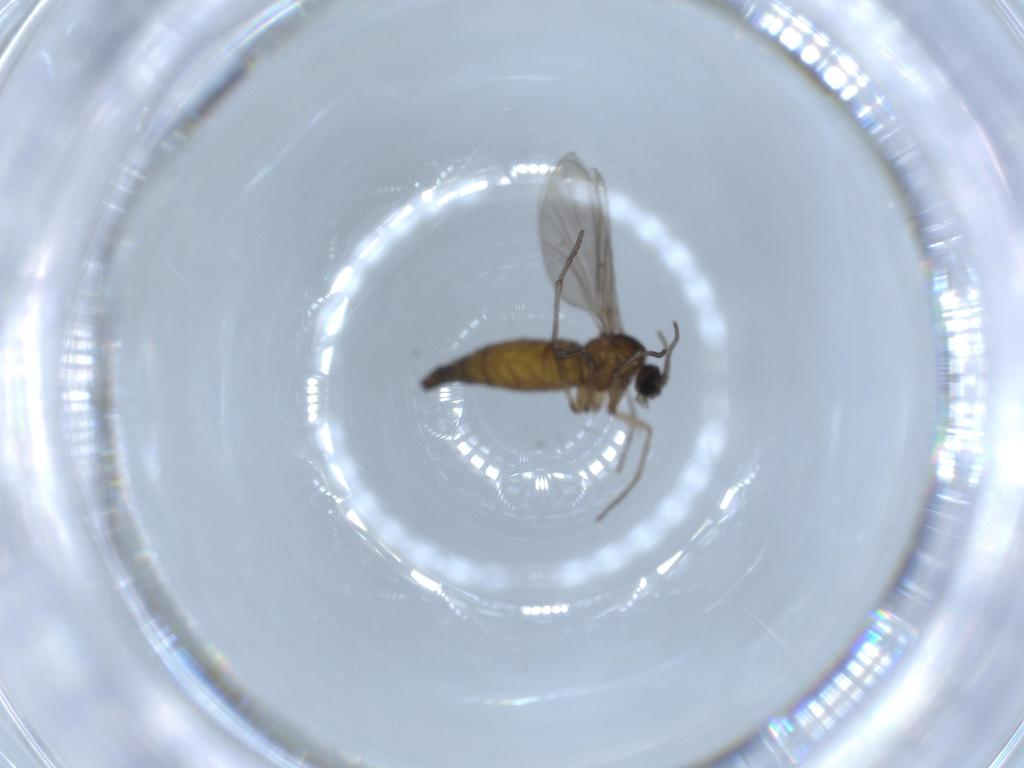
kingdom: Animalia
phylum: Arthropoda
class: Insecta
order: Diptera
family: Sciaridae
